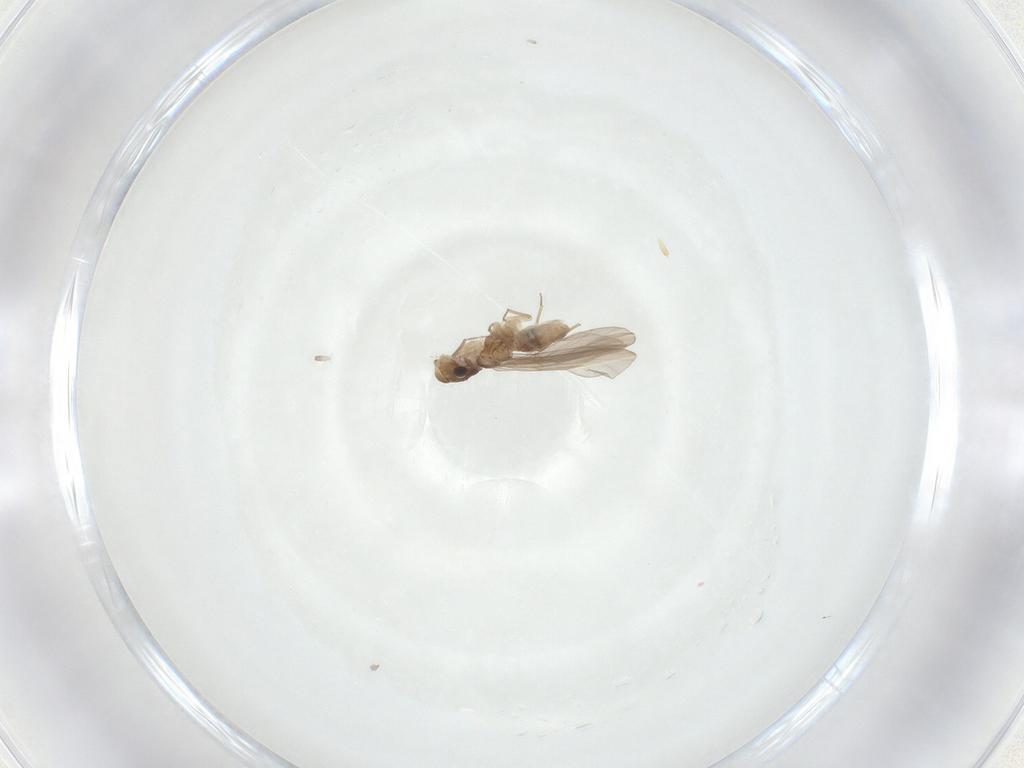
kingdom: Animalia
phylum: Arthropoda
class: Insecta
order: Psocodea
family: Lepidopsocidae
